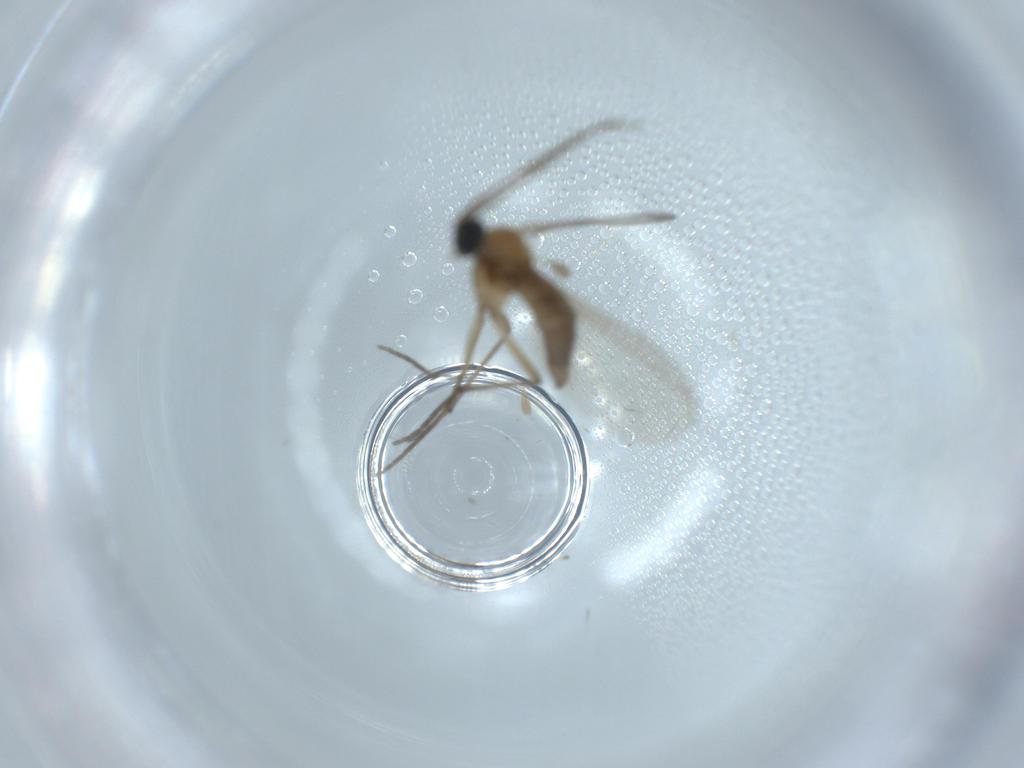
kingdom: Animalia
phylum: Arthropoda
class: Insecta
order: Diptera
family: Sciaridae
